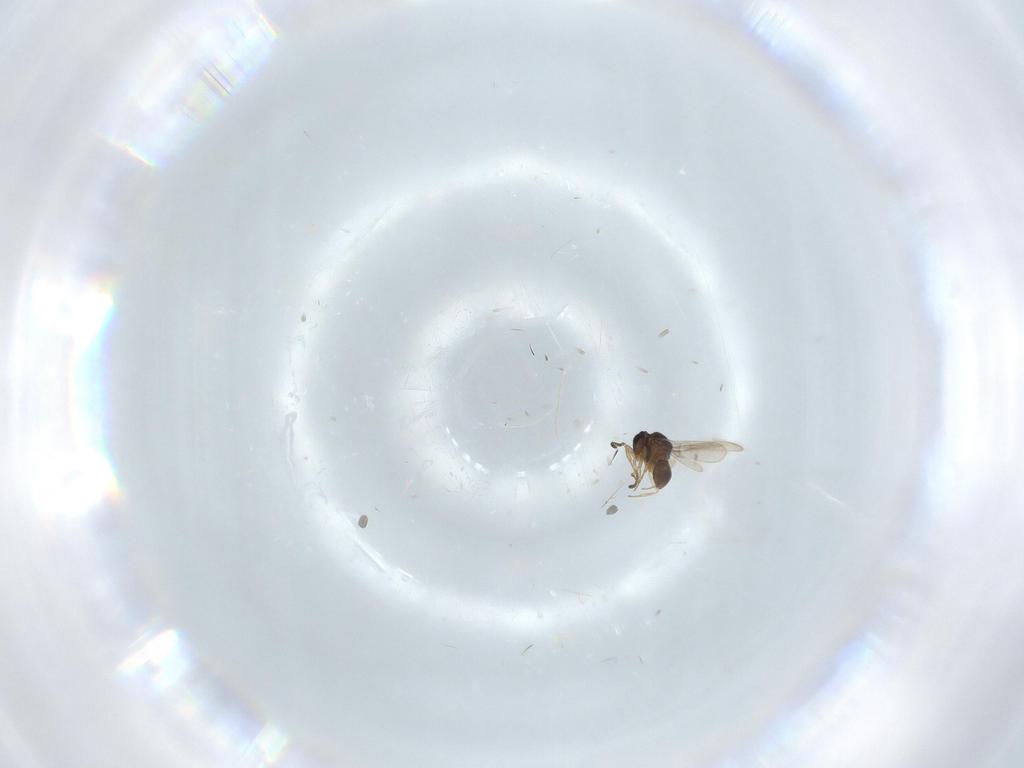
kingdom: Animalia
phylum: Arthropoda
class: Insecta
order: Hymenoptera
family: Scelionidae
